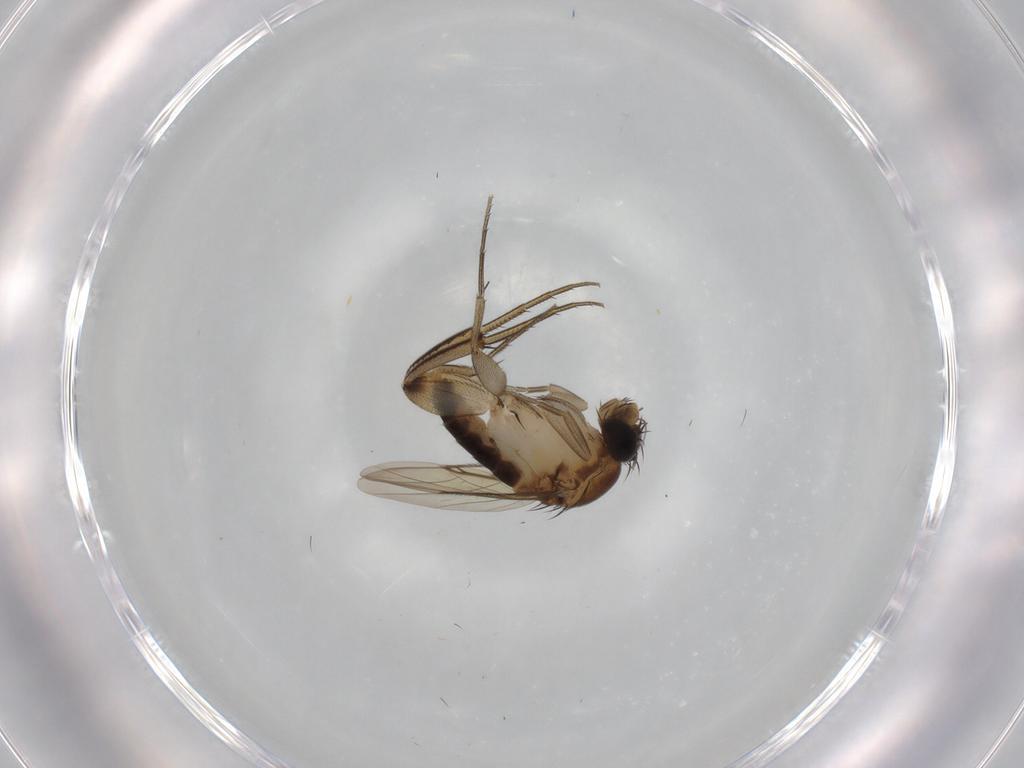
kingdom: Animalia
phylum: Arthropoda
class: Insecta
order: Diptera
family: Phoridae
